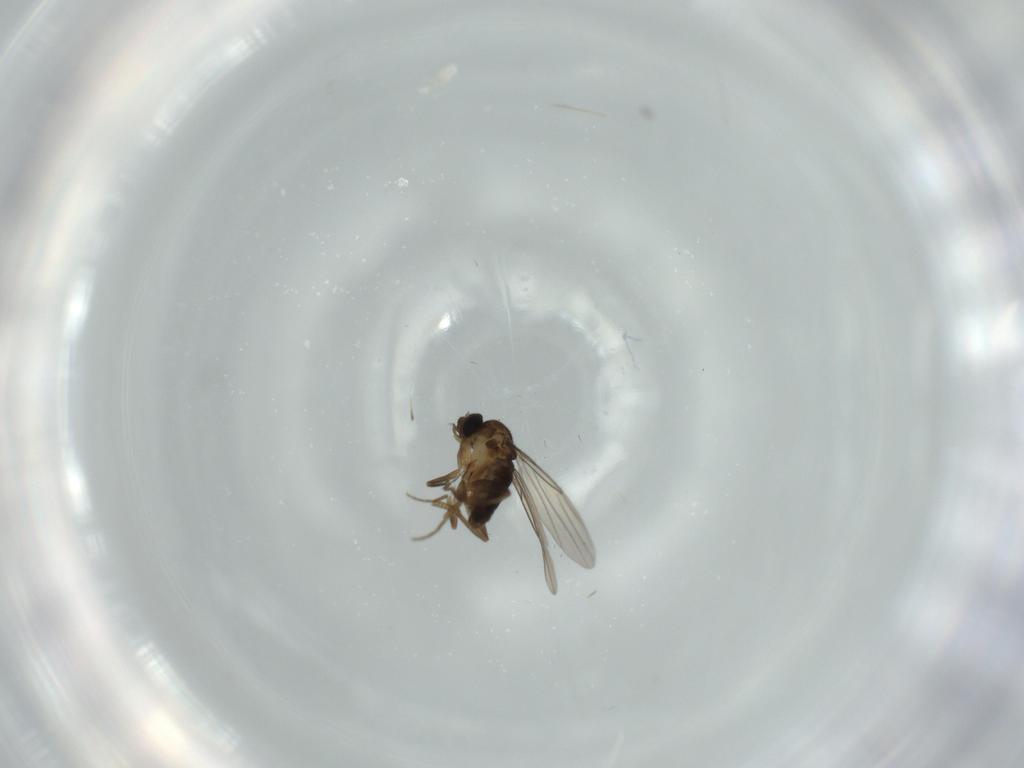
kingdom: Animalia
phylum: Arthropoda
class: Insecta
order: Diptera
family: Phoridae
